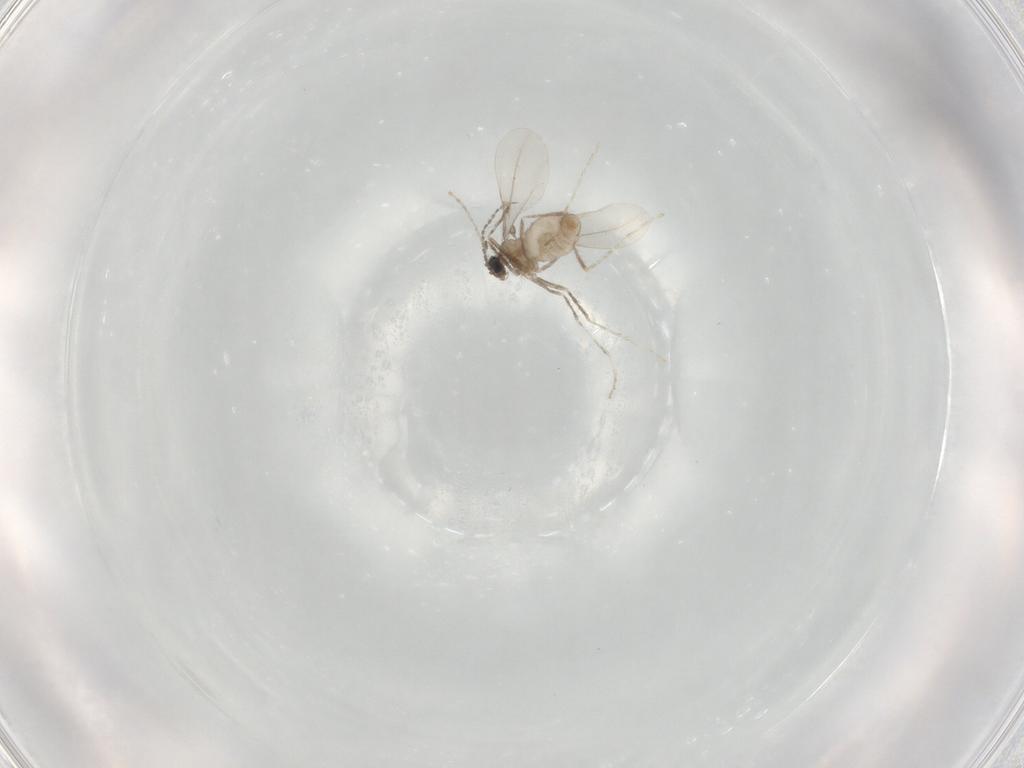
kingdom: Animalia
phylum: Arthropoda
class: Insecta
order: Diptera
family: Cecidomyiidae
